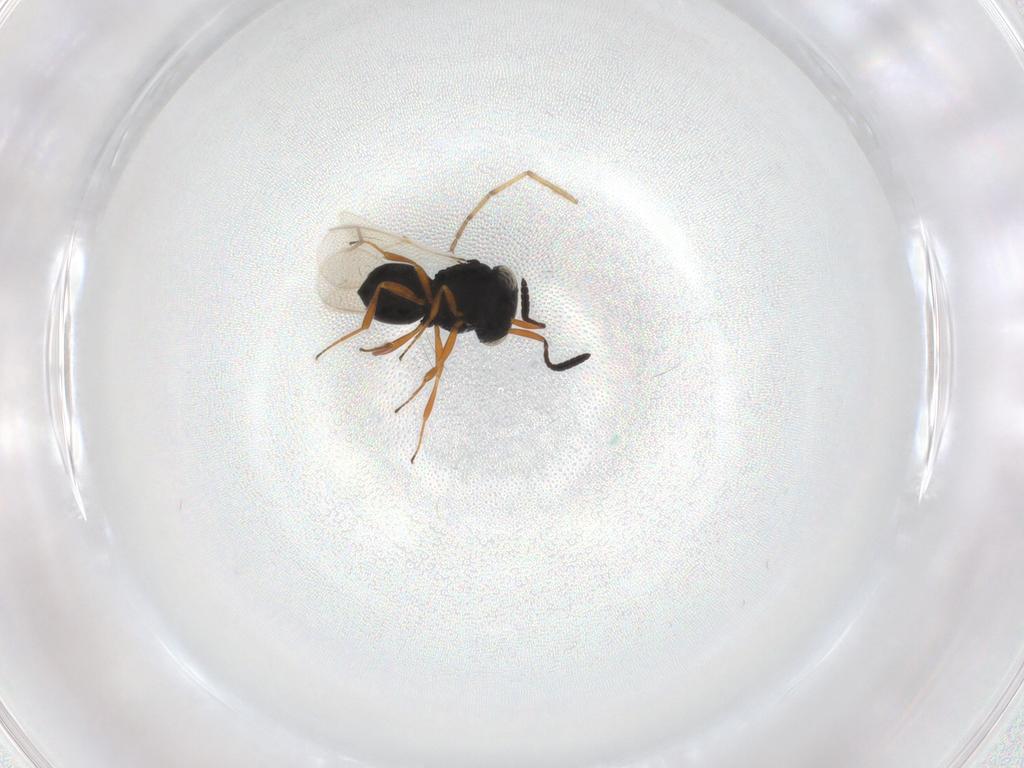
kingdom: Animalia
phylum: Arthropoda
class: Insecta
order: Hymenoptera
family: Scelionidae
